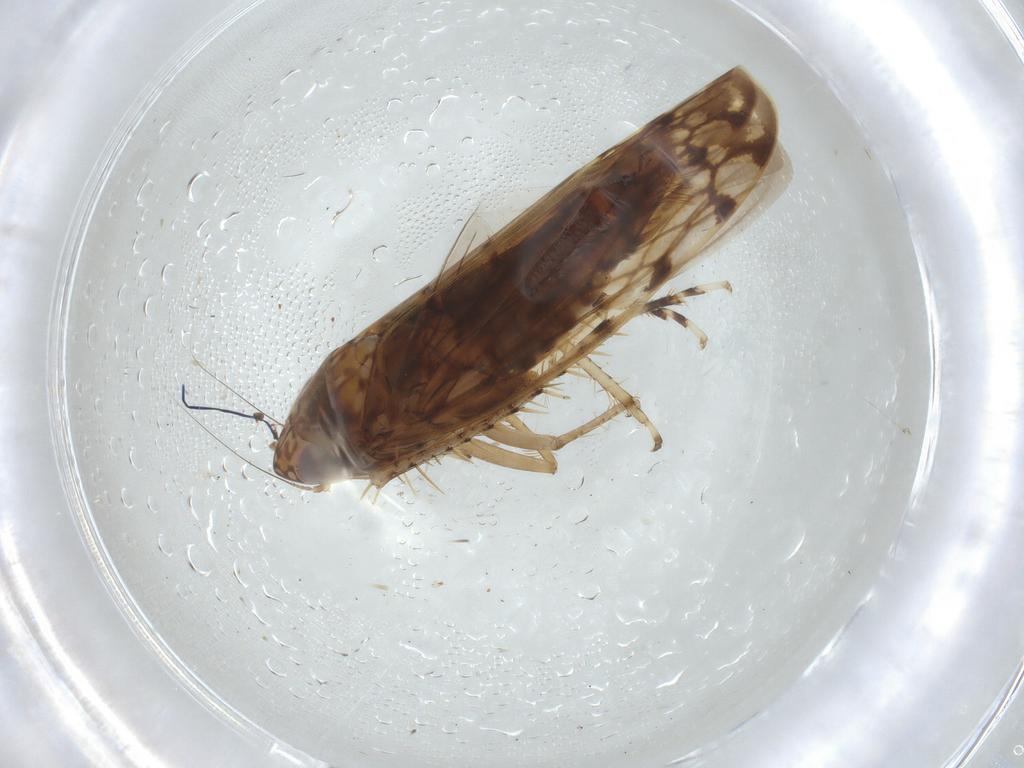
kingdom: Animalia
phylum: Arthropoda
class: Insecta
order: Hemiptera
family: Cicadellidae
